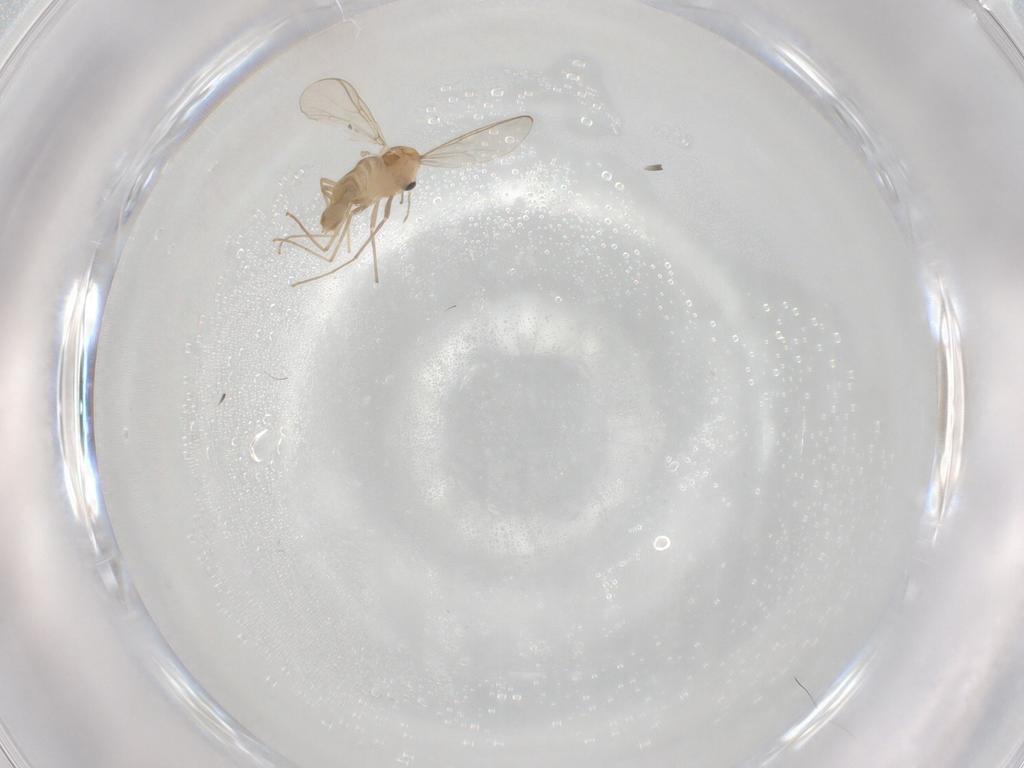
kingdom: Animalia
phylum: Arthropoda
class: Insecta
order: Diptera
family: Chironomidae
